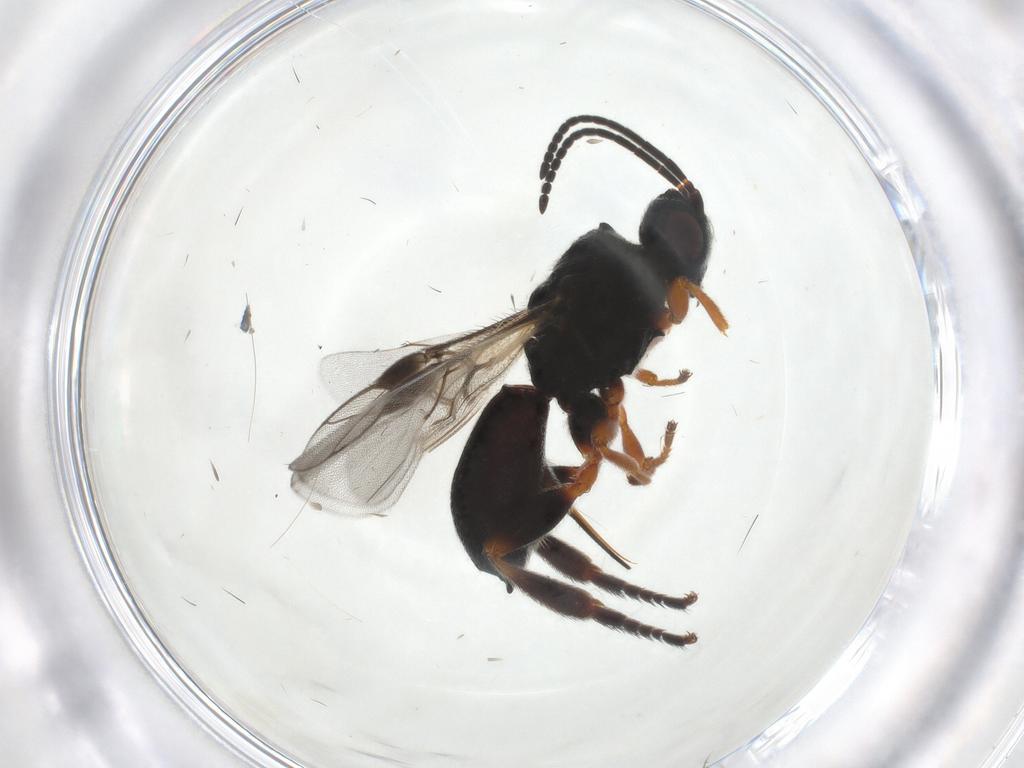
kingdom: Animalia
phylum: Arthropoda
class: Insecta
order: Hymenoptera
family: Braconidae
